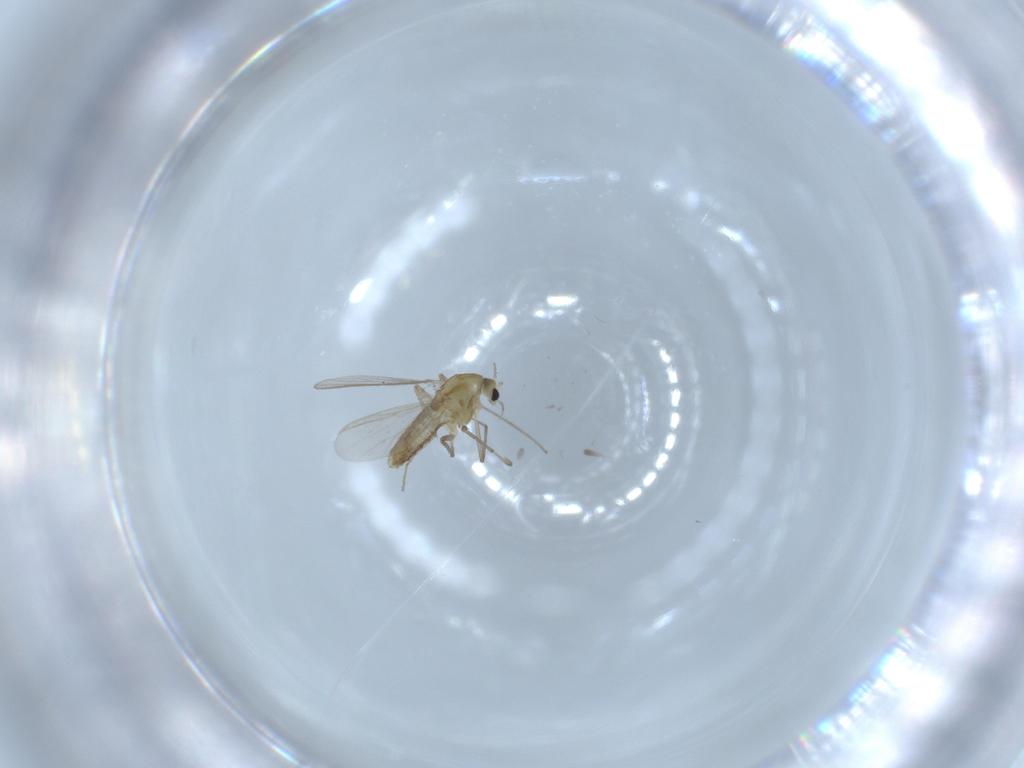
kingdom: Animalia
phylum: Arthropoda
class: Insecta
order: Diptera
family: Chironomidae
